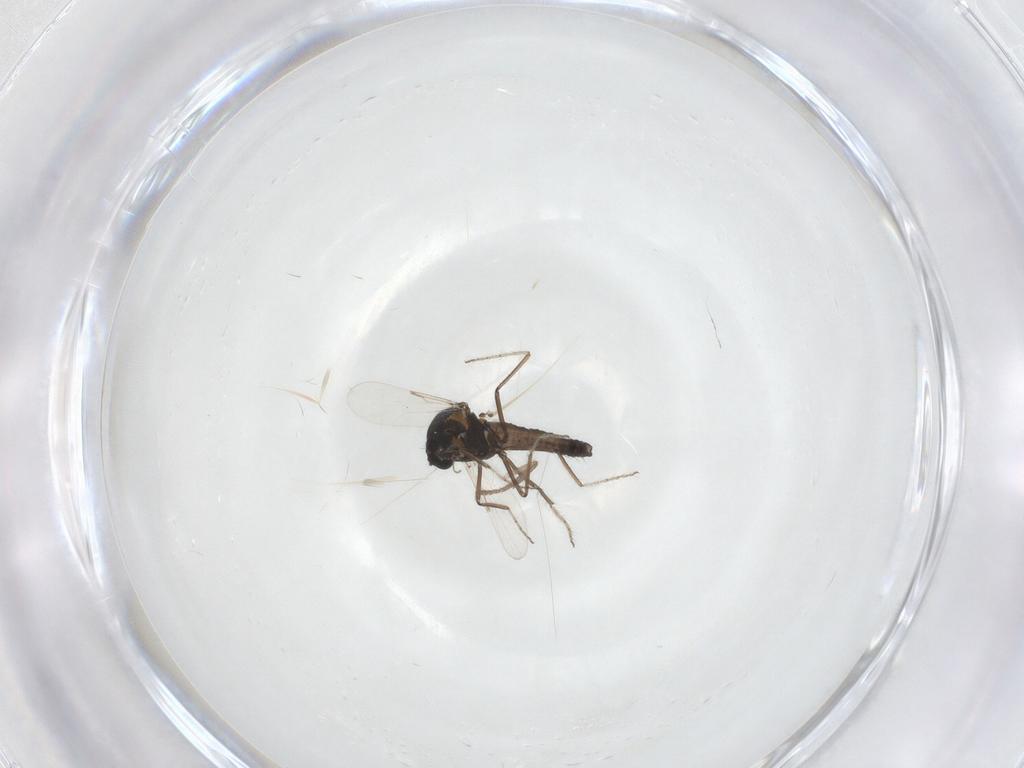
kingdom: Animalia
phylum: Arthropoda
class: Insecta
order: Diptera
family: Ceratopogonidae
